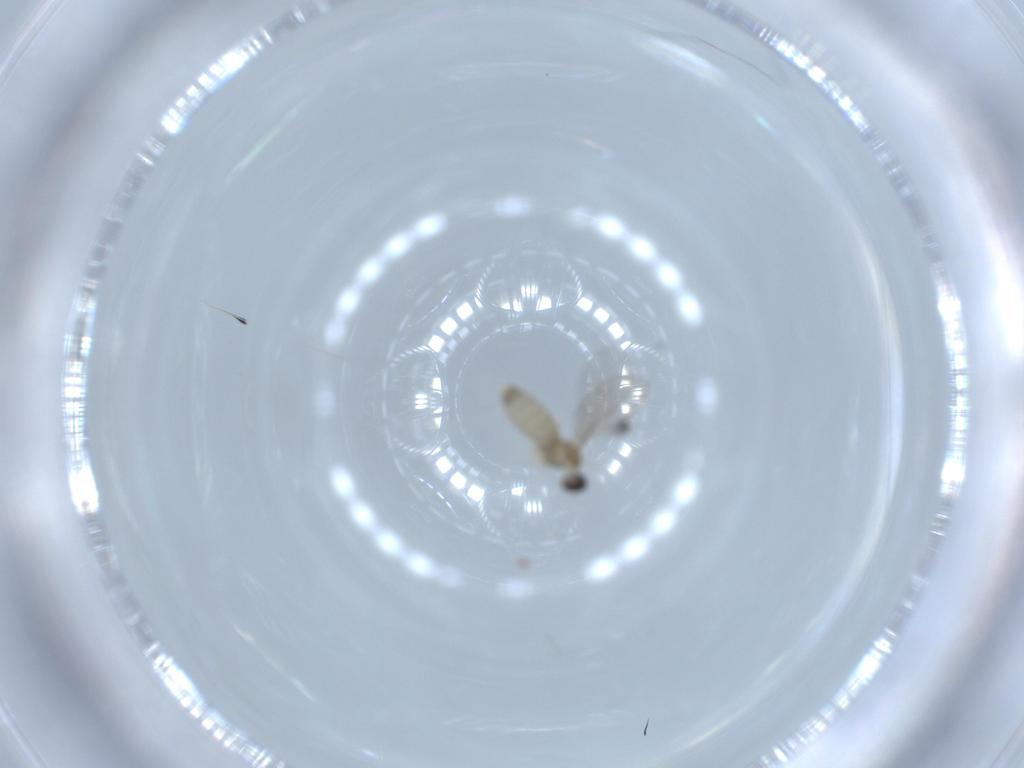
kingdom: Animalia
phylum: Arthropoda
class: Insecta
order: Diptera
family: Cecidomyiidae
